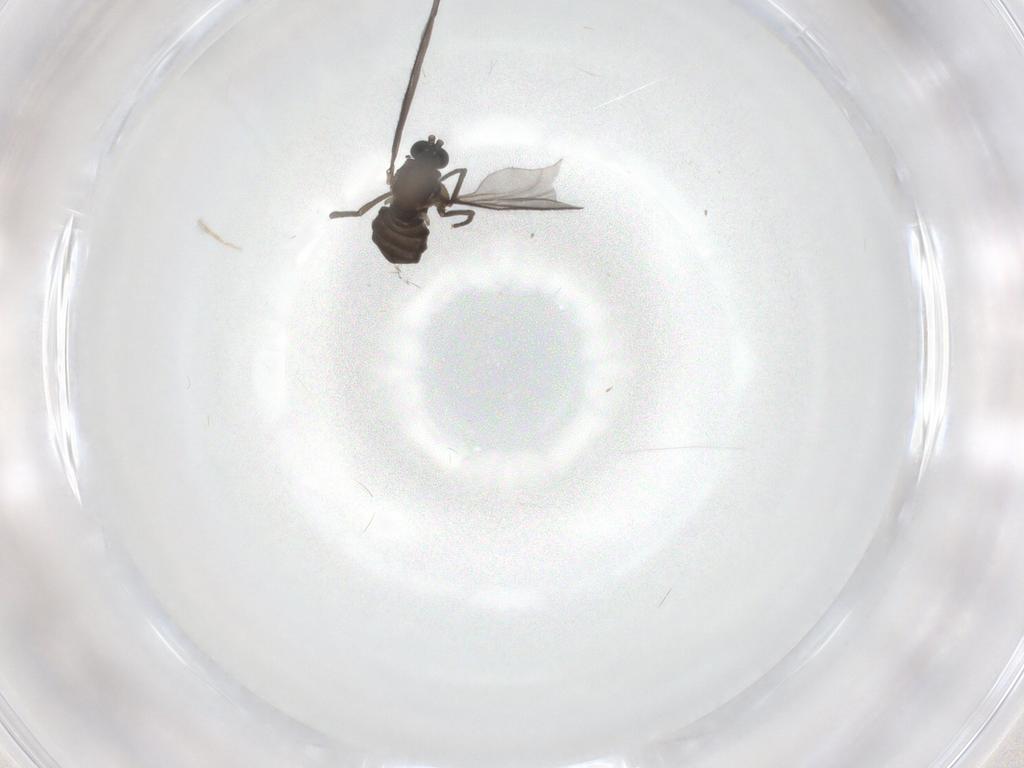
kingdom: Animalia
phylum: Arthropoda
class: Insecta
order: Diptera
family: Sciaridae
